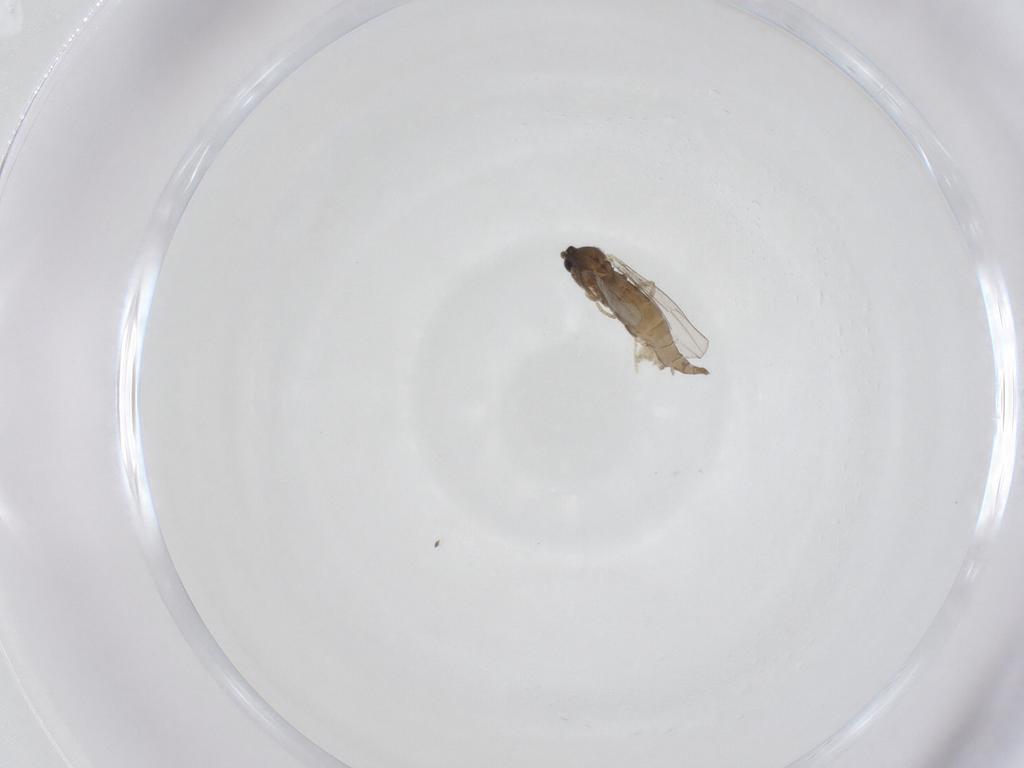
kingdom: Animalia
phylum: Arthropoda
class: Insecta
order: Diptera
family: Cecidomyiidae
